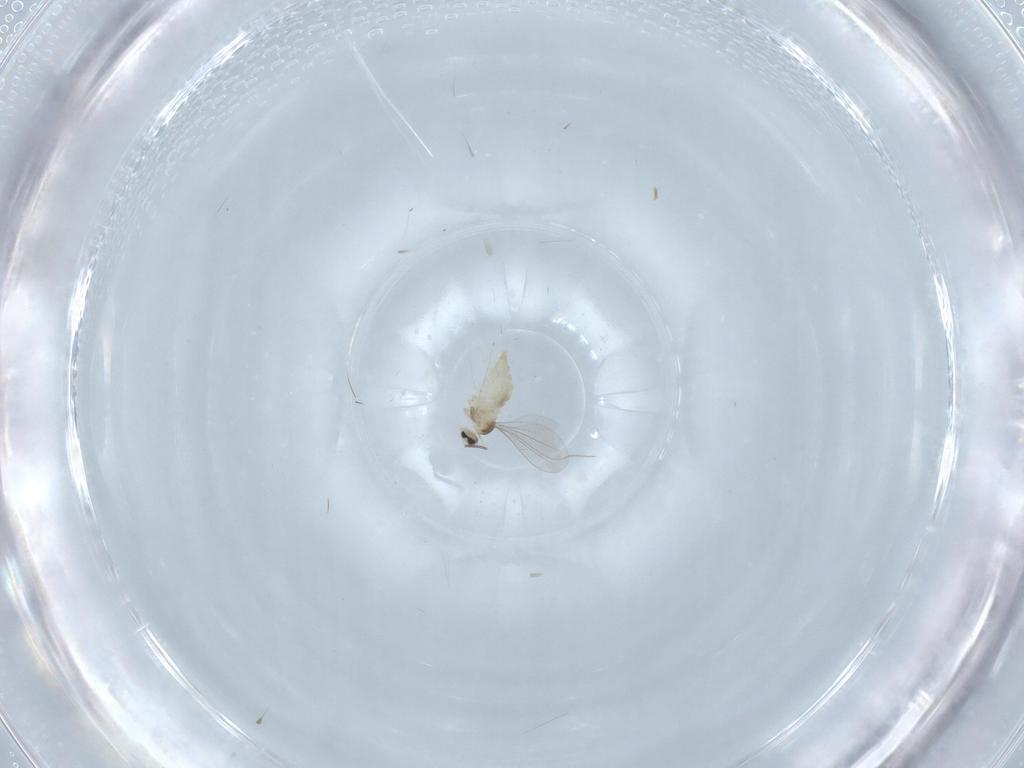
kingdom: Animalia
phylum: Arthropoda
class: Insecta
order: Diptera
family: Cecidomyiidae
